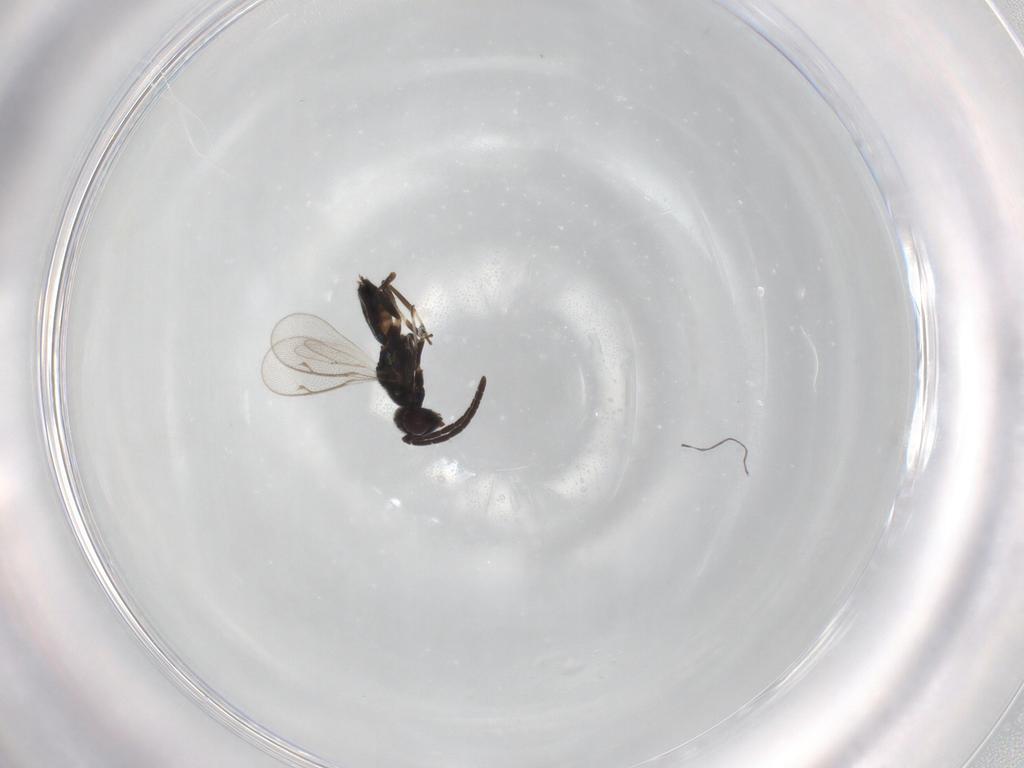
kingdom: Animalia
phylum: Arthropoda
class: Insecta
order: Hymenoptera
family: Eupelmidae
